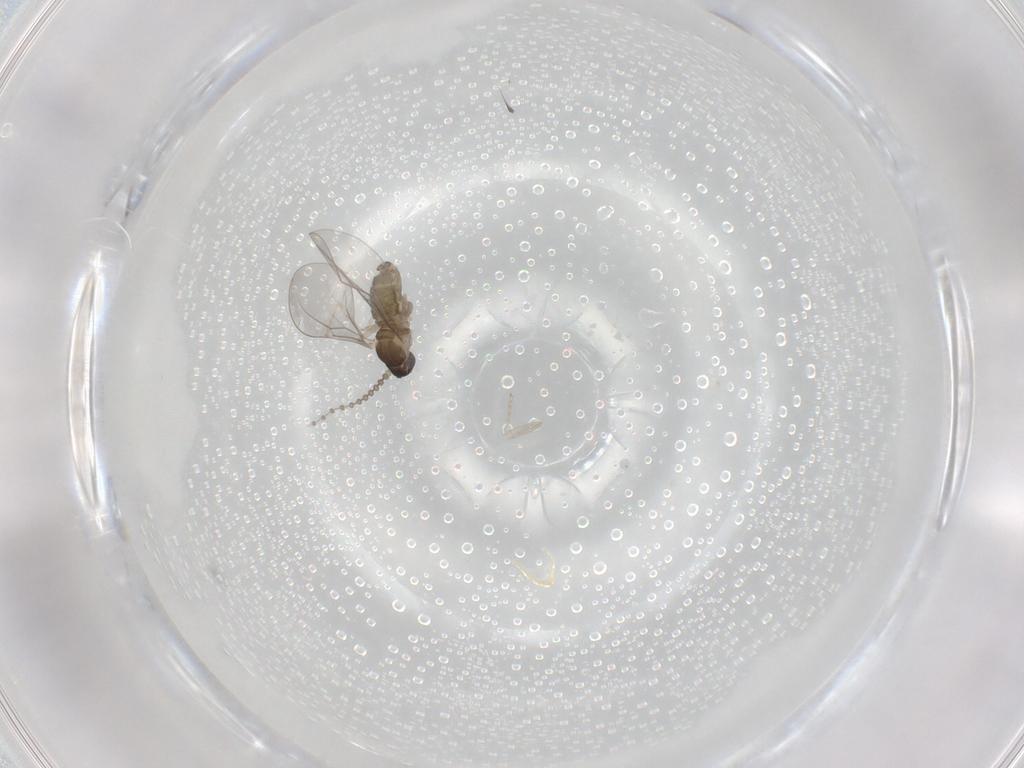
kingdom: Animalia
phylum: Arthropoda
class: Insecta
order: Diptera
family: Cecidomyiidae
